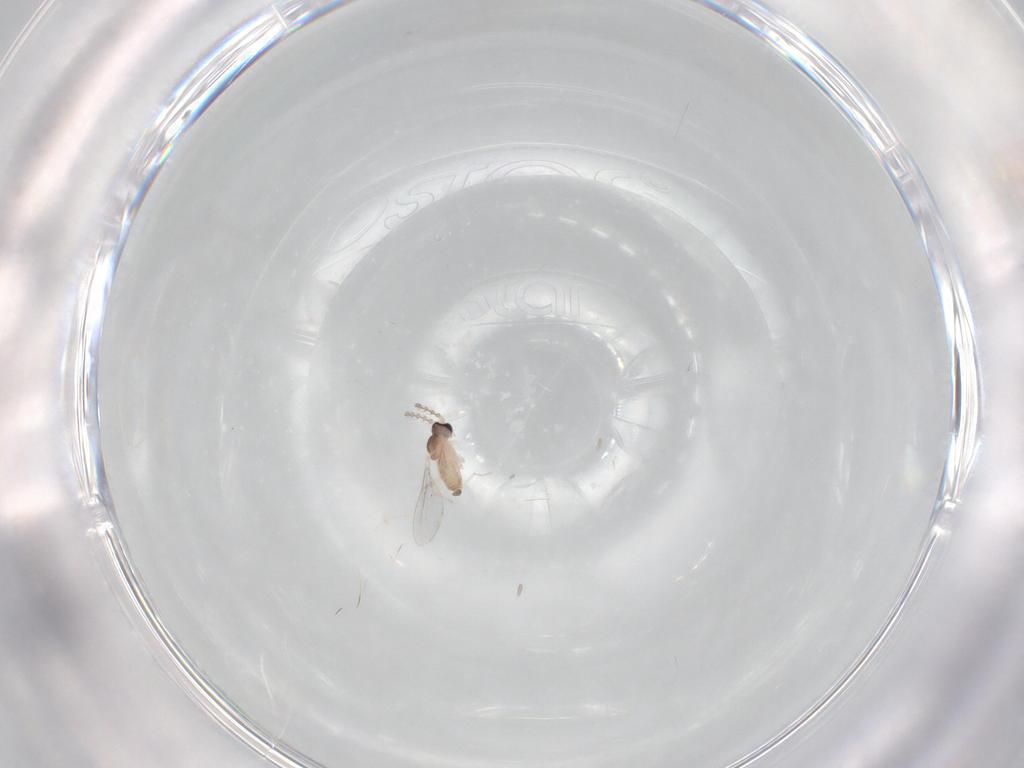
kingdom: Animalia
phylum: Arthropoda
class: Insecta
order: Diptera
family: Cecidomyiidae
